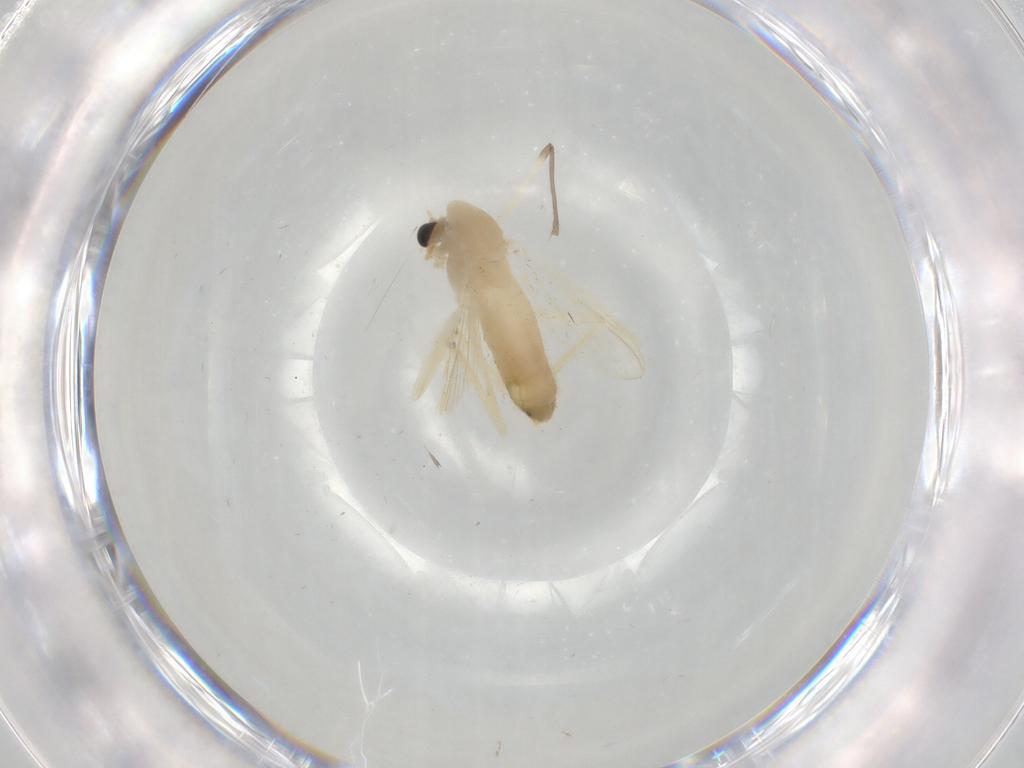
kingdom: Animalia
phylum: Arthropoda
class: Insecta
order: Diptera
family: Chironomidae
